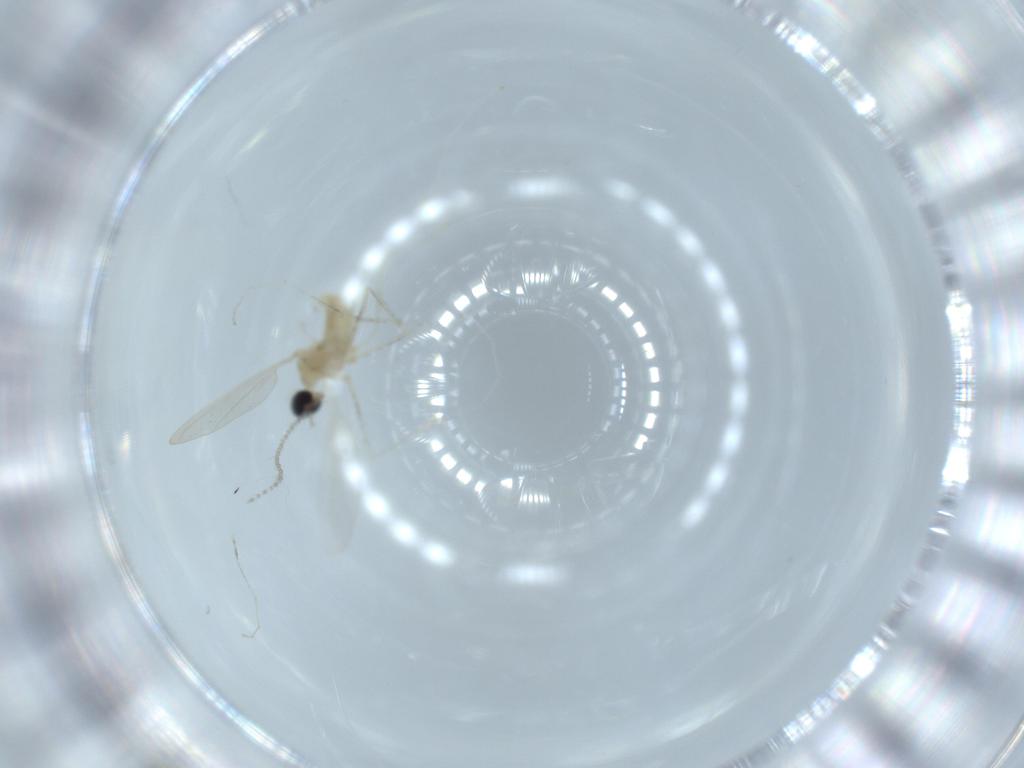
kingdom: Animalia
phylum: Arthropoda
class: Insecta
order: Diptera
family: Cecidomyiidae
